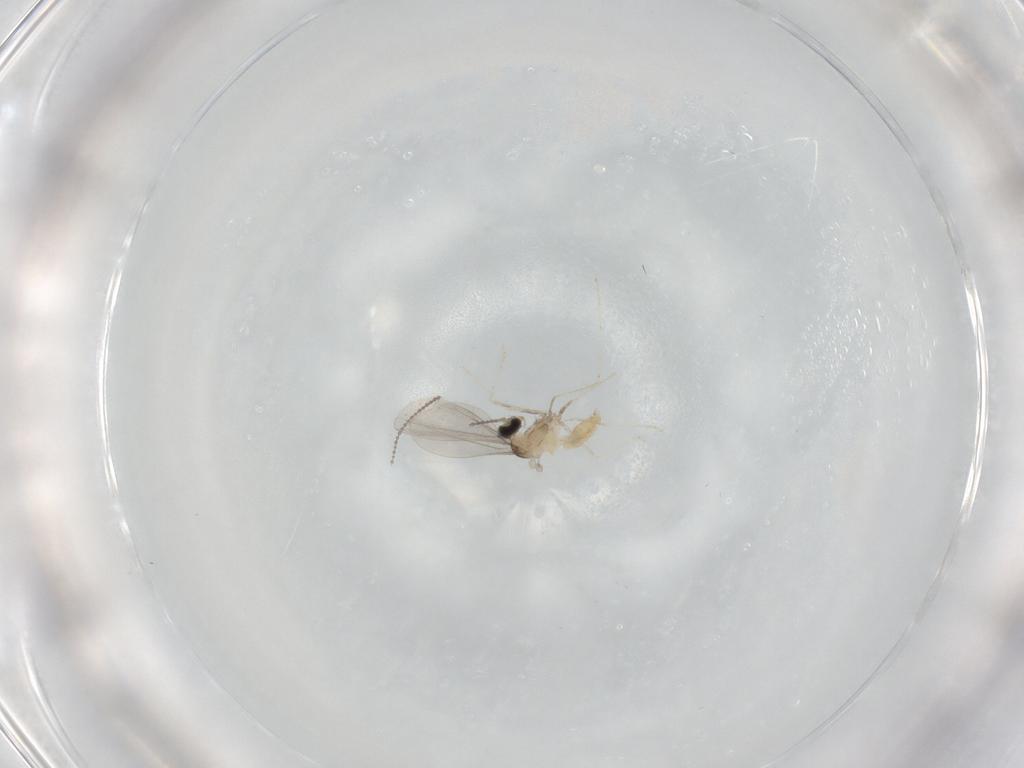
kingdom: Animalia
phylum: Arthropoda
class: Insecta
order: Diptera
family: Cecidomyiidae
